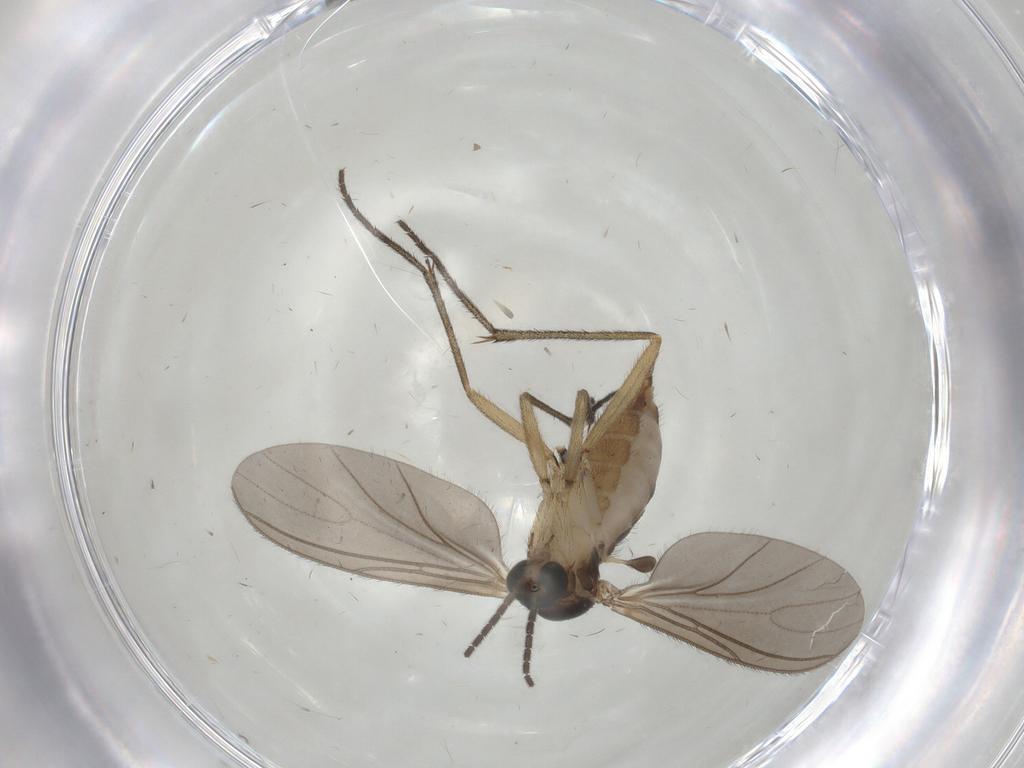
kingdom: Animalia
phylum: Arthropoda
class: Insecta
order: Diptera
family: Sciaridae
